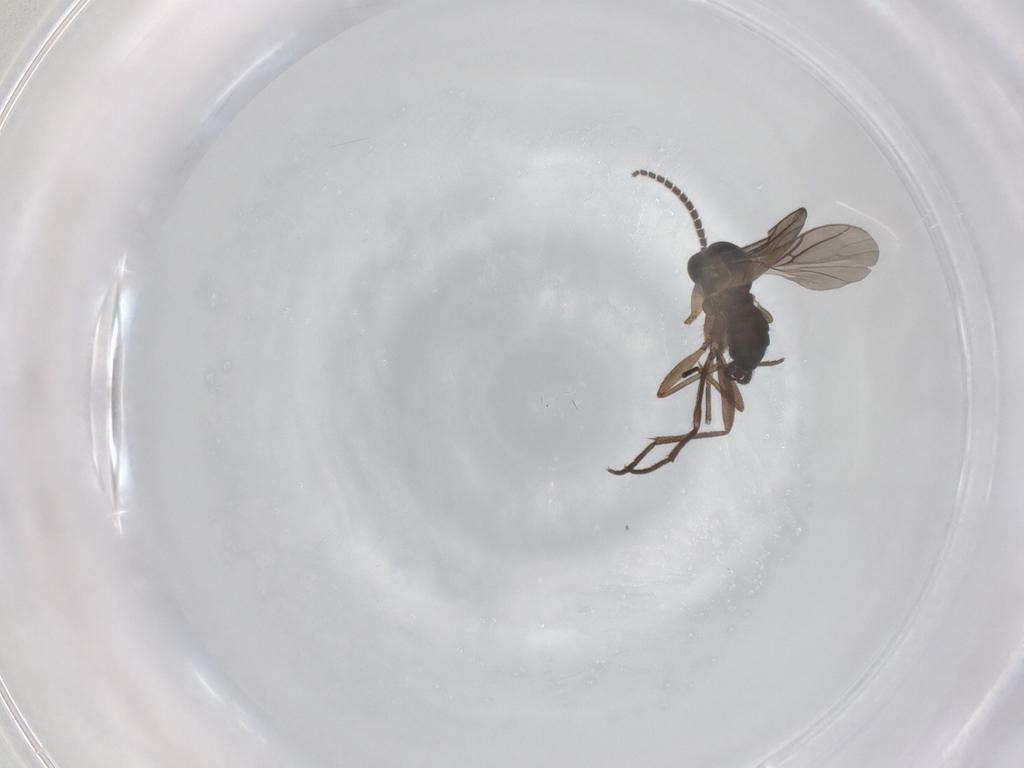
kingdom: Animalia
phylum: Arthropoda
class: Insecta
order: Diptera
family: Sciaridae
